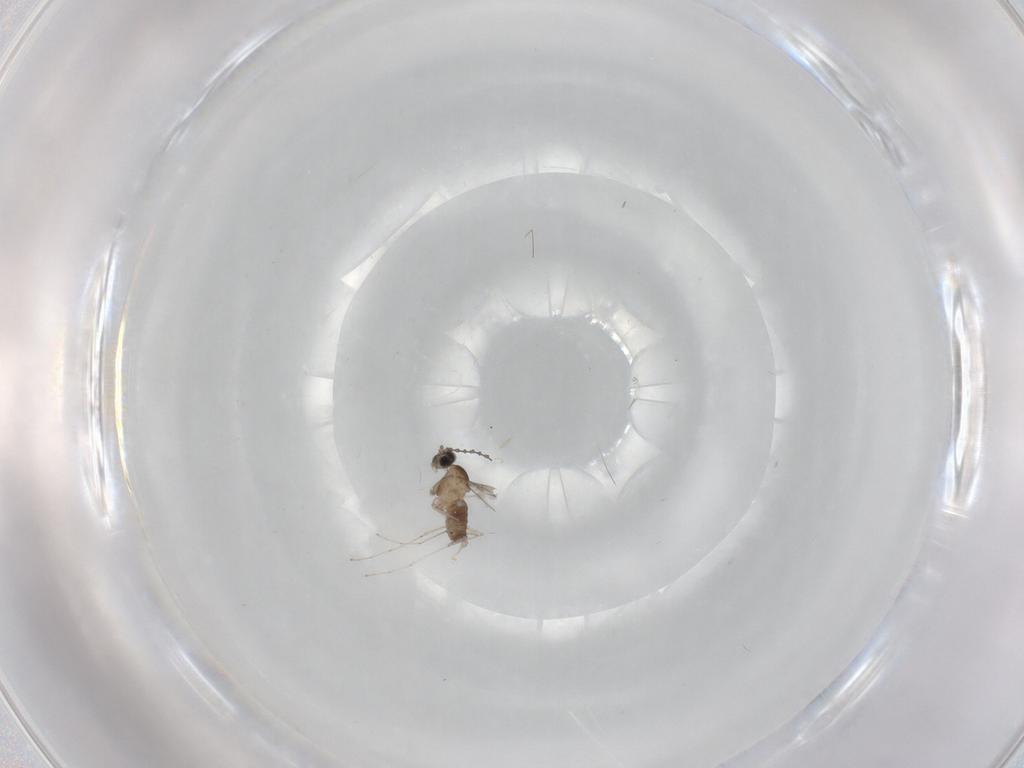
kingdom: Animalia
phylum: Arthropoda
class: Insecta
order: Diptera
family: Cecidomyiidae
